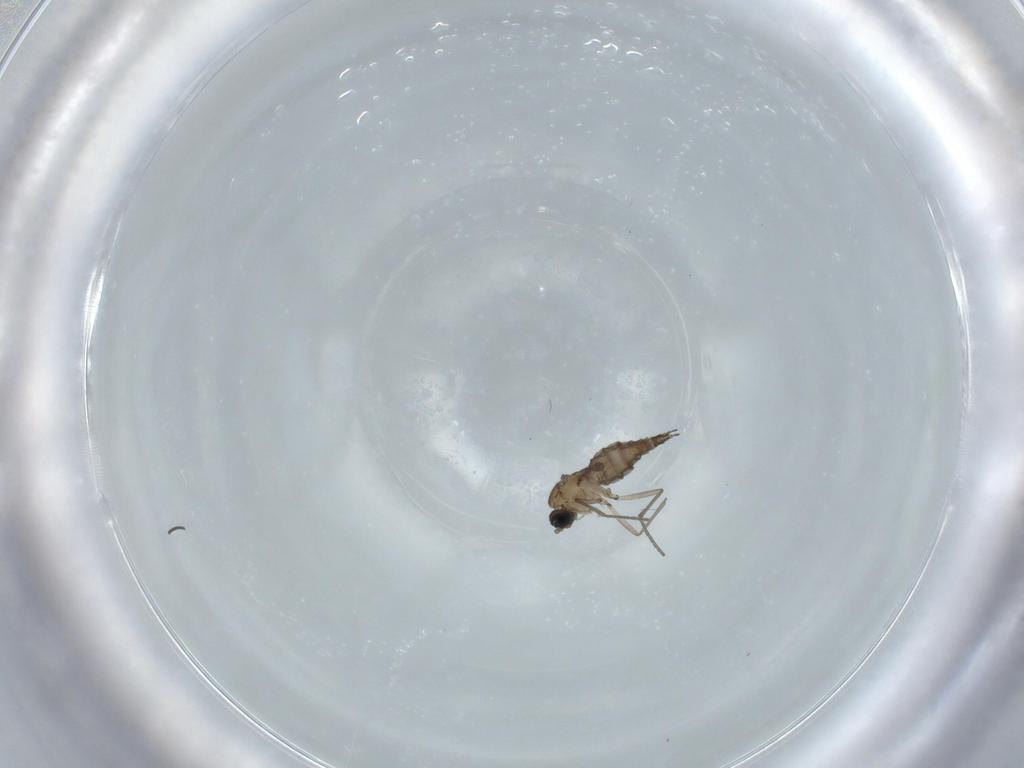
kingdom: Animalia
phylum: Arthropoda
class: Insecta
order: Diptera
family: Sciaridae
